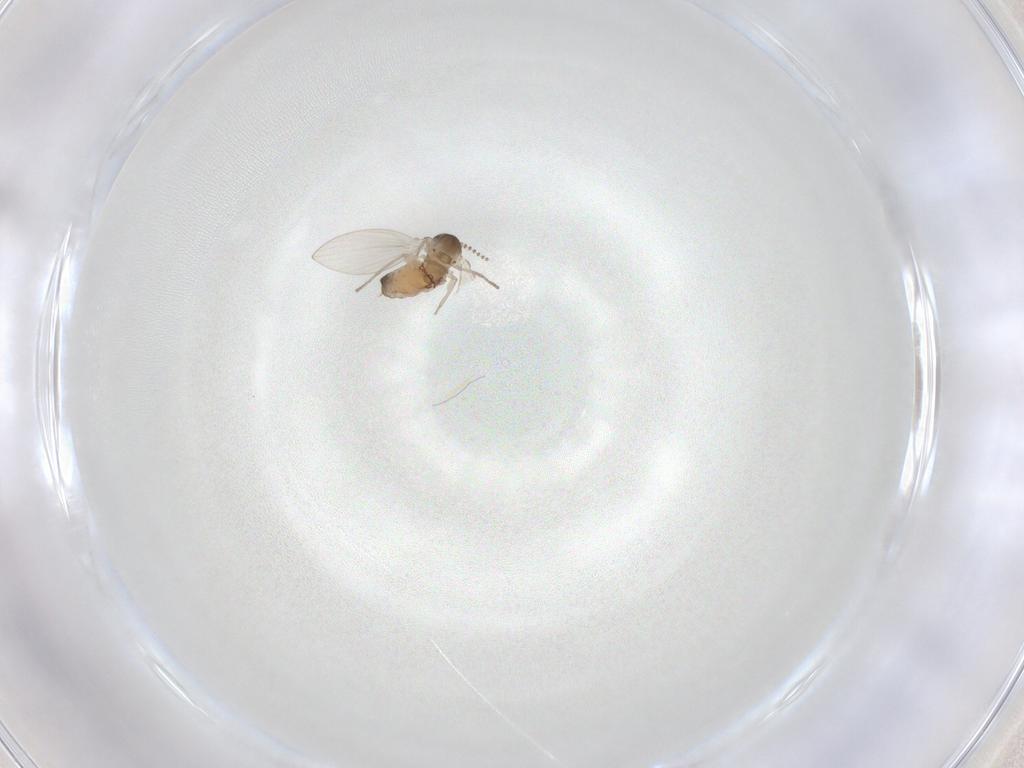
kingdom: Animalia
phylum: Arthropoda
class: Insecta
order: Diptera
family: Psychodidae
